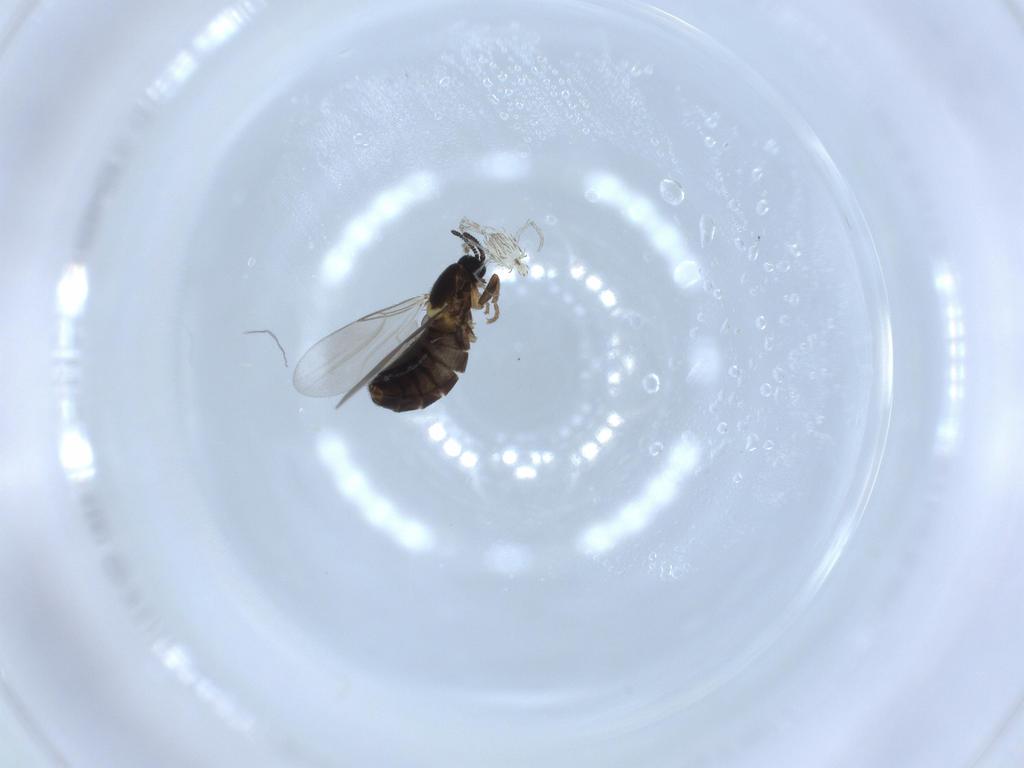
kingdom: Animalia
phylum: Arthropoda
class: Insecta
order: Diptera
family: Scatopsidae
